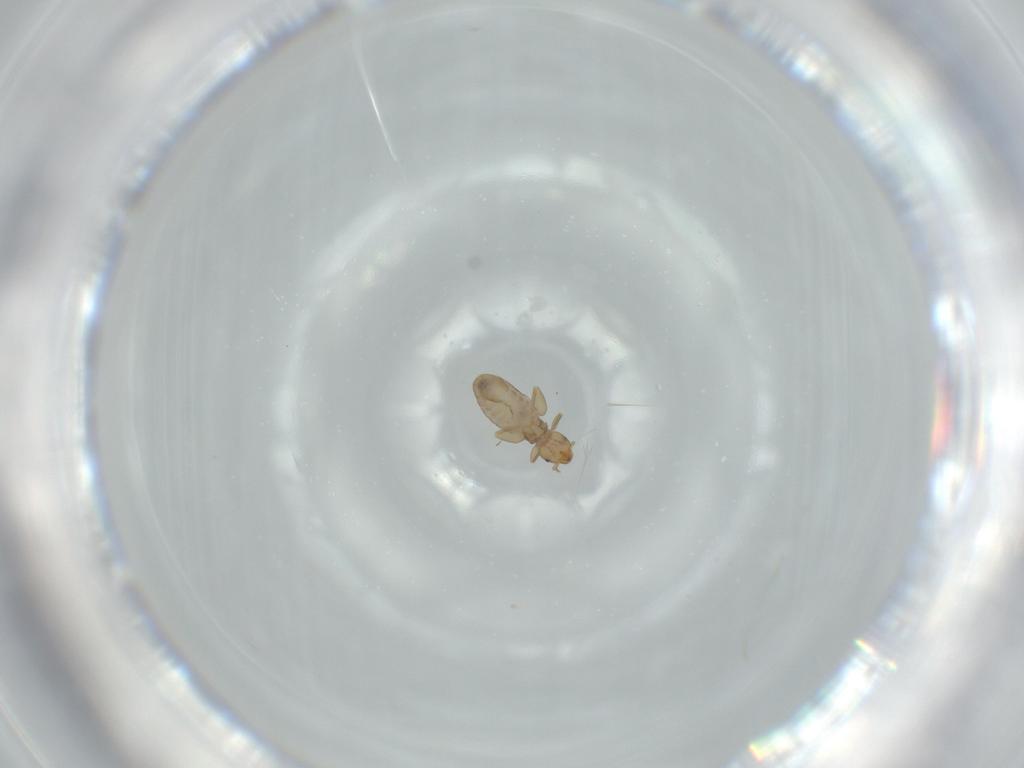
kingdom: Animalia
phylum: Arthropoda
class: Insecta
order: Psocodea
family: Liposcelididae
